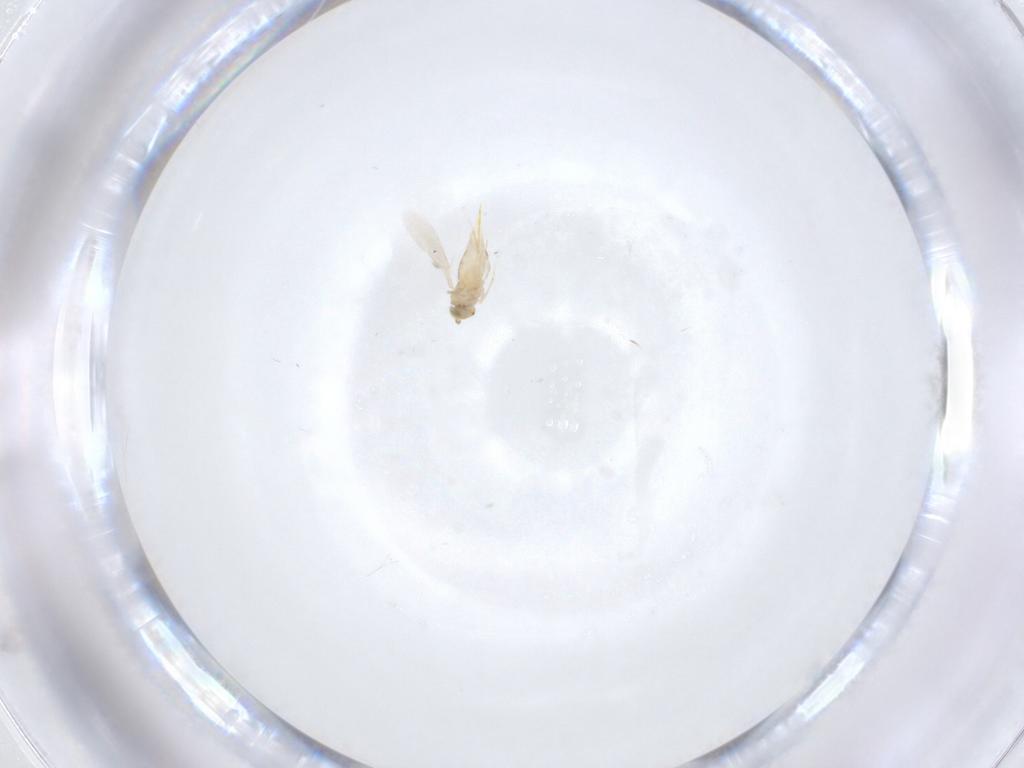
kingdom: Animalia
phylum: Arthropoda
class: Insecta
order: Hymenoptera
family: Aphelinidae
